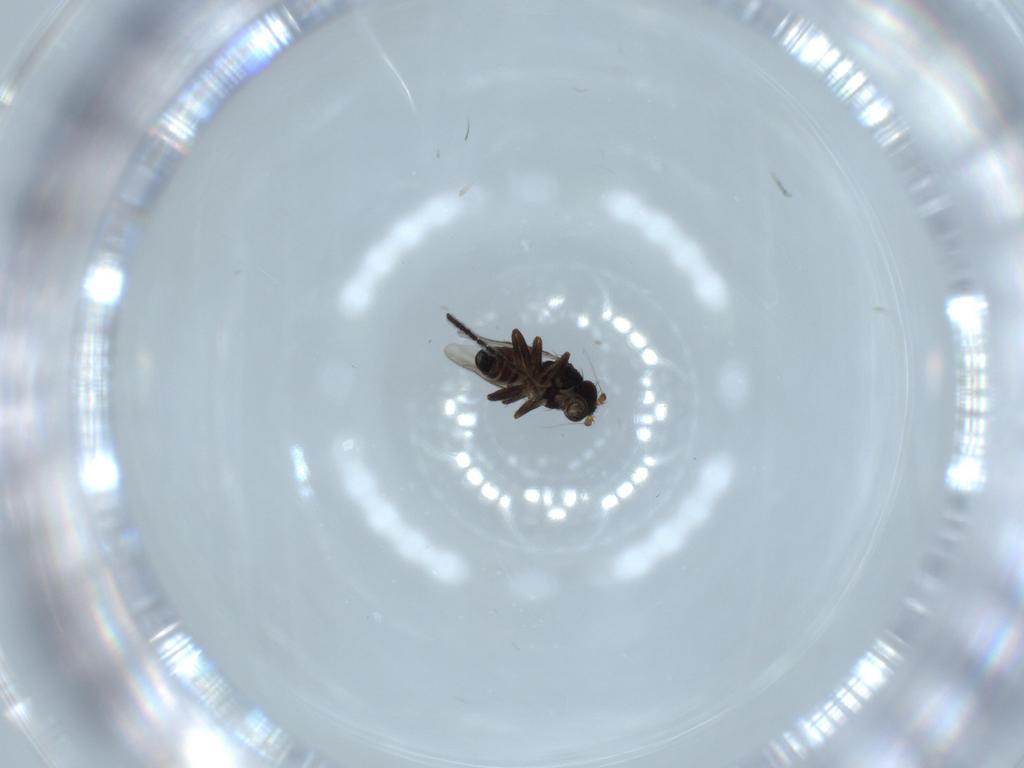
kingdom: Animalia
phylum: Arthropoda
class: Insecta
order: Diptera
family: Sphaeroceridae
